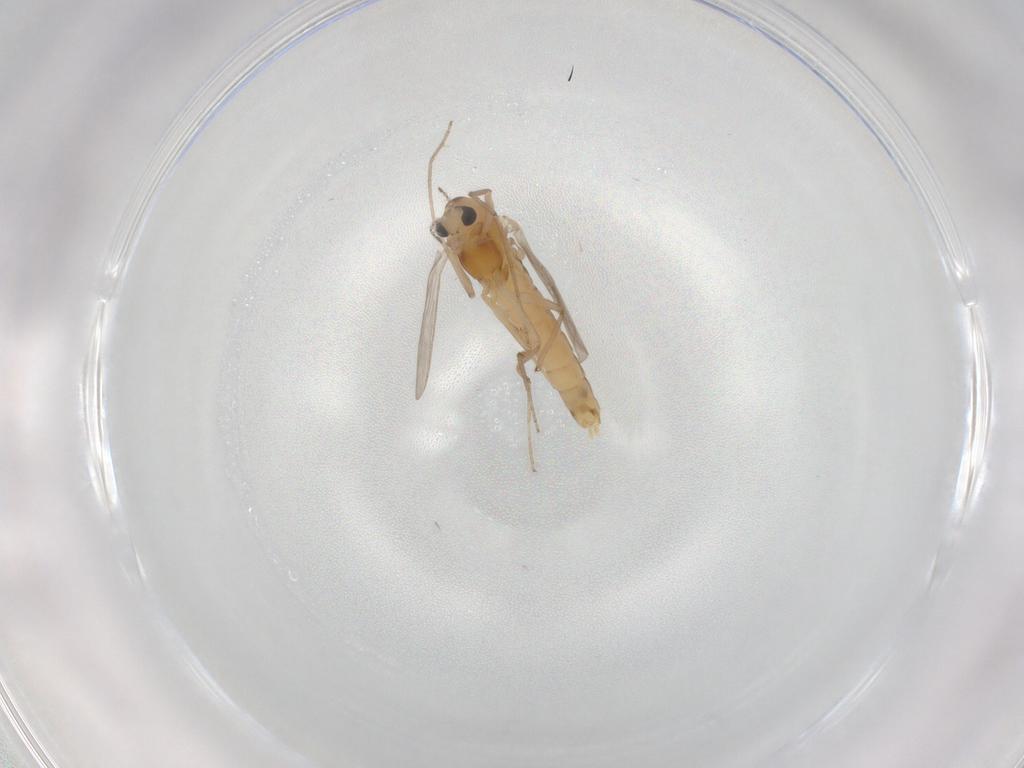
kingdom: Animalia
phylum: Arthropoda
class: Insecta
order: Diptera
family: Chironomidae
